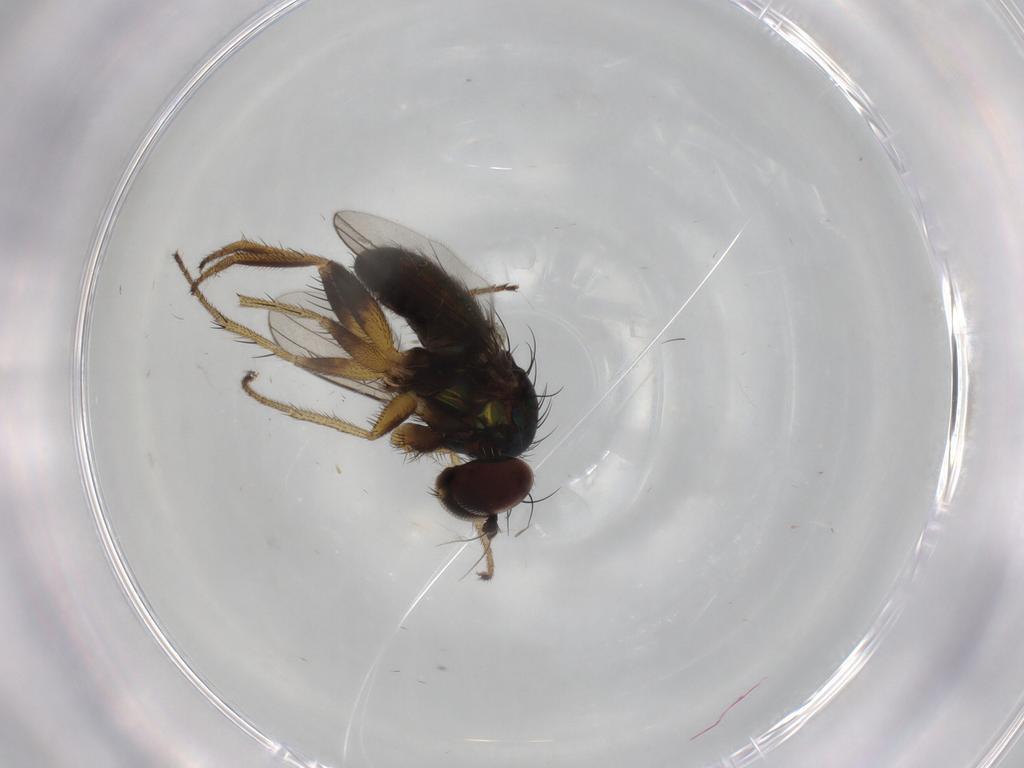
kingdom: Animalia
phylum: Arthropoda
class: Insecta
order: Diptera
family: Dolichopodidae
